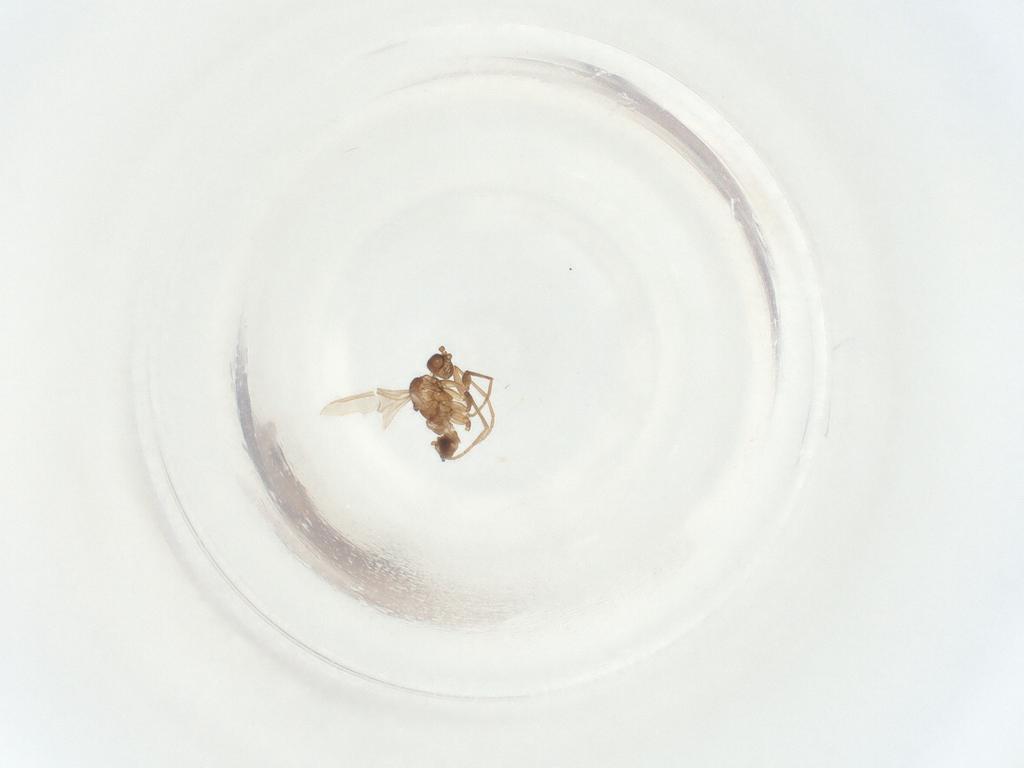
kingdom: Animalia
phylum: Arthropoda
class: Insecta
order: Diptera
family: Sciaridae
